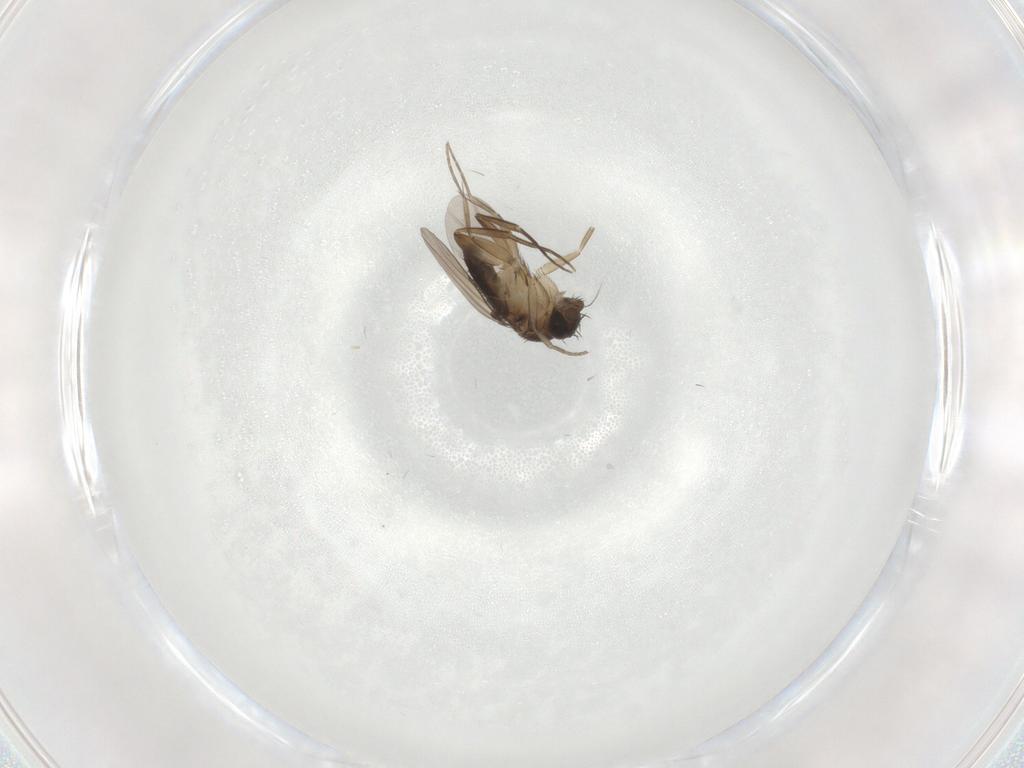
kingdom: Animalia
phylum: Arthropoda
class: Insecta
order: Diptera
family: Phoridae
